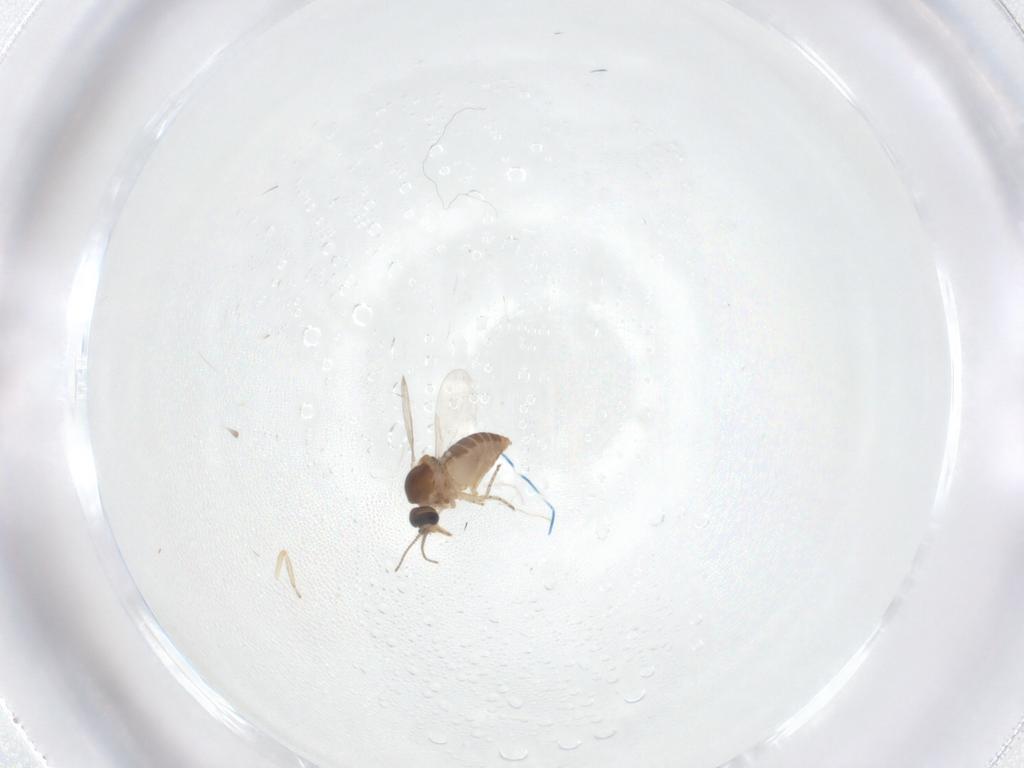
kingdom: Animalia
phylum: Arthropoda
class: Insecta
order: Diptera
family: Ceratopogonidae
